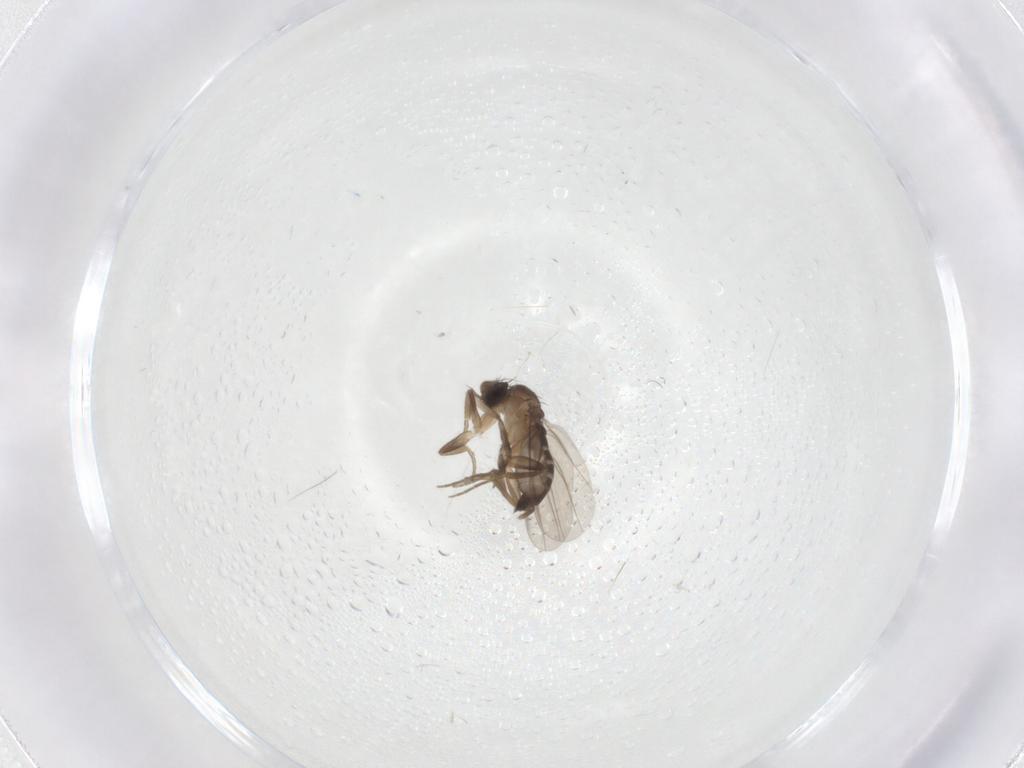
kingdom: Animalia
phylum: Arthropoda
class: Insecta
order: Diptera
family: Phoridae
